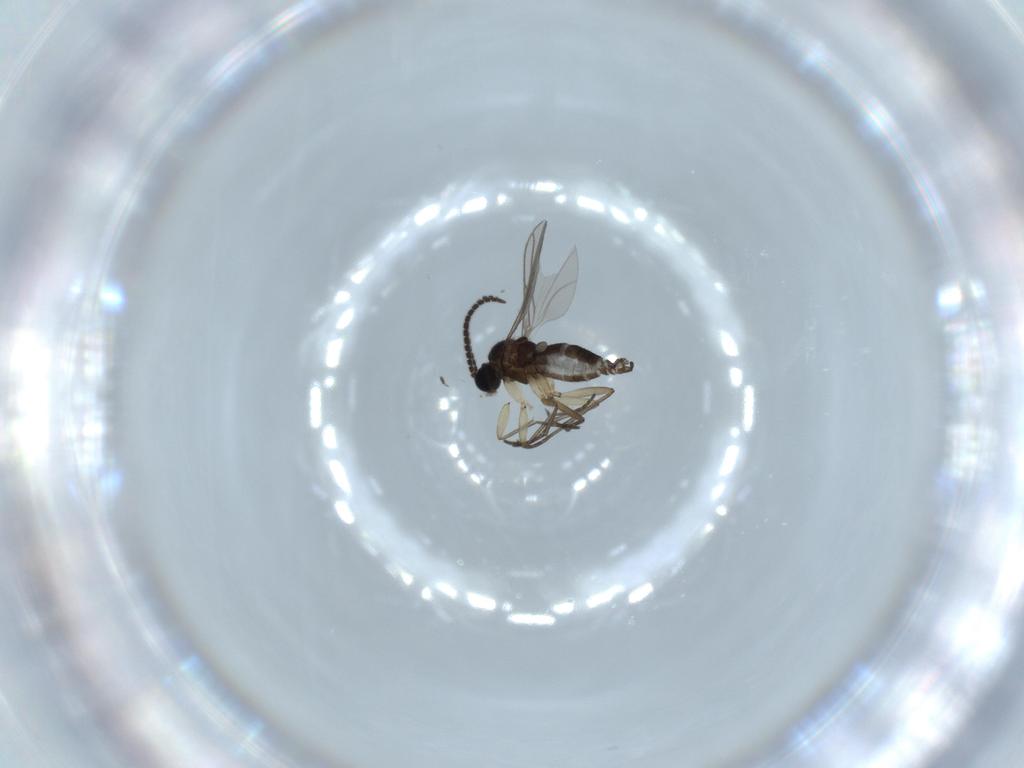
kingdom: Animalia
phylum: Arthropoda
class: Insecta
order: Diptera
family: Sciaridae
